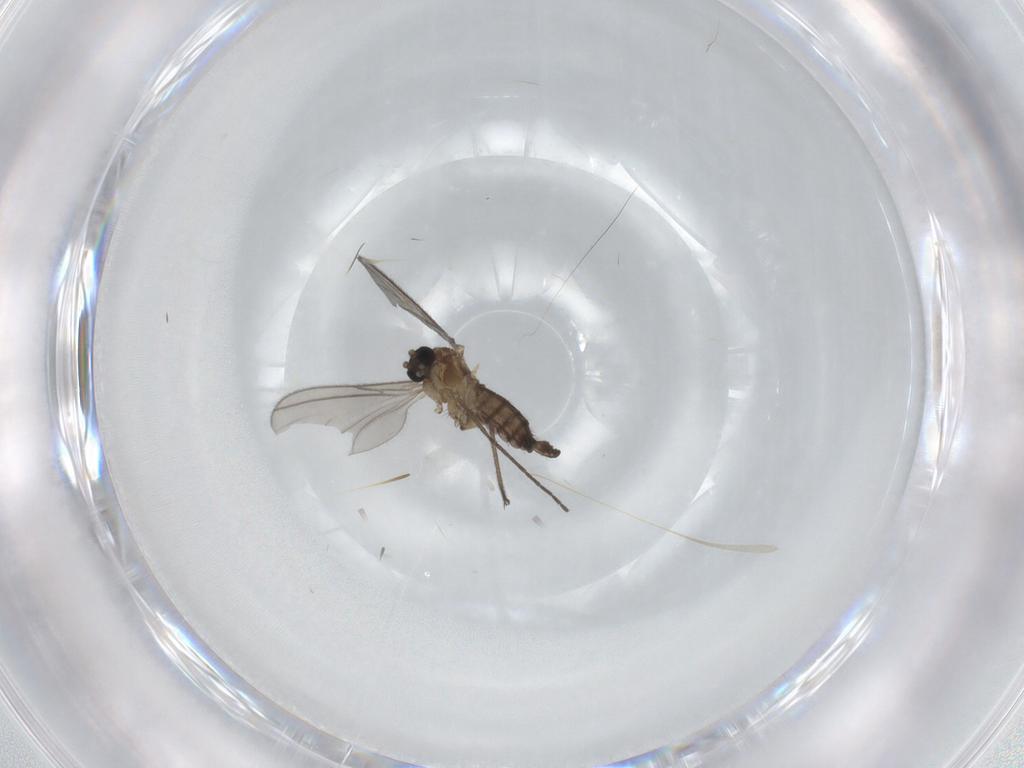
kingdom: Animalia
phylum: Arthropoda
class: Insecta
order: Diptera
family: Sciaridae
